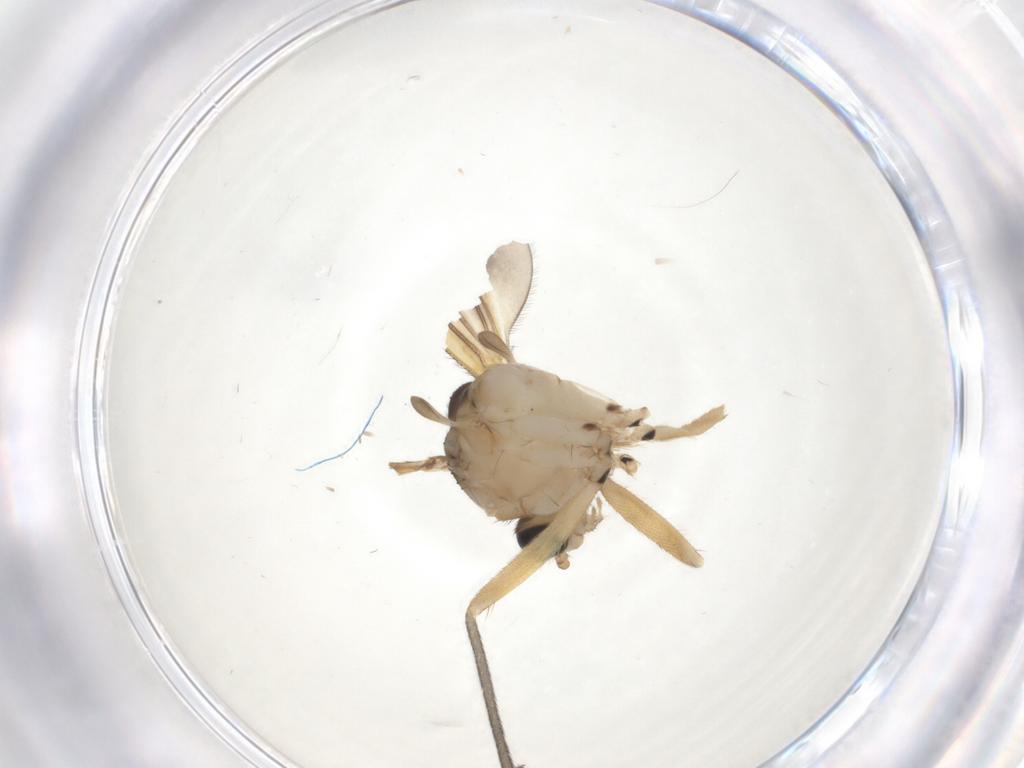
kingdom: Animalia
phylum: Arthropoda
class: Insecta
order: Diptera
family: Sciaridae
